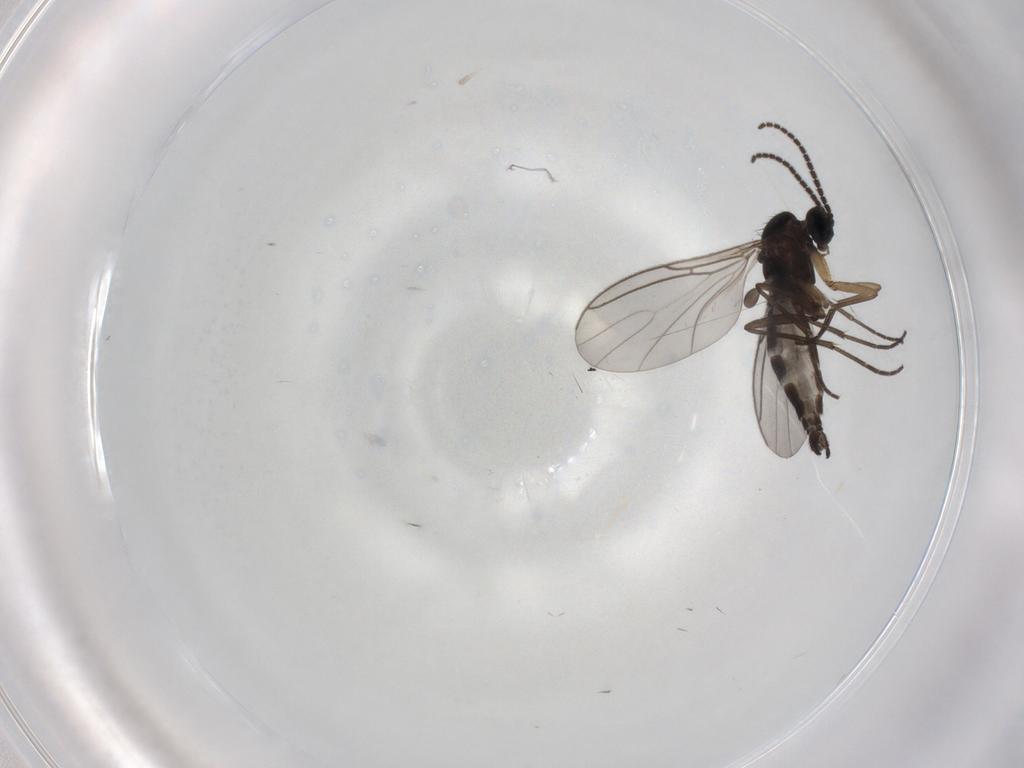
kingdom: Animalia
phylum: Arthropoda
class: Insecta
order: Diptera
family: Sciaridae
